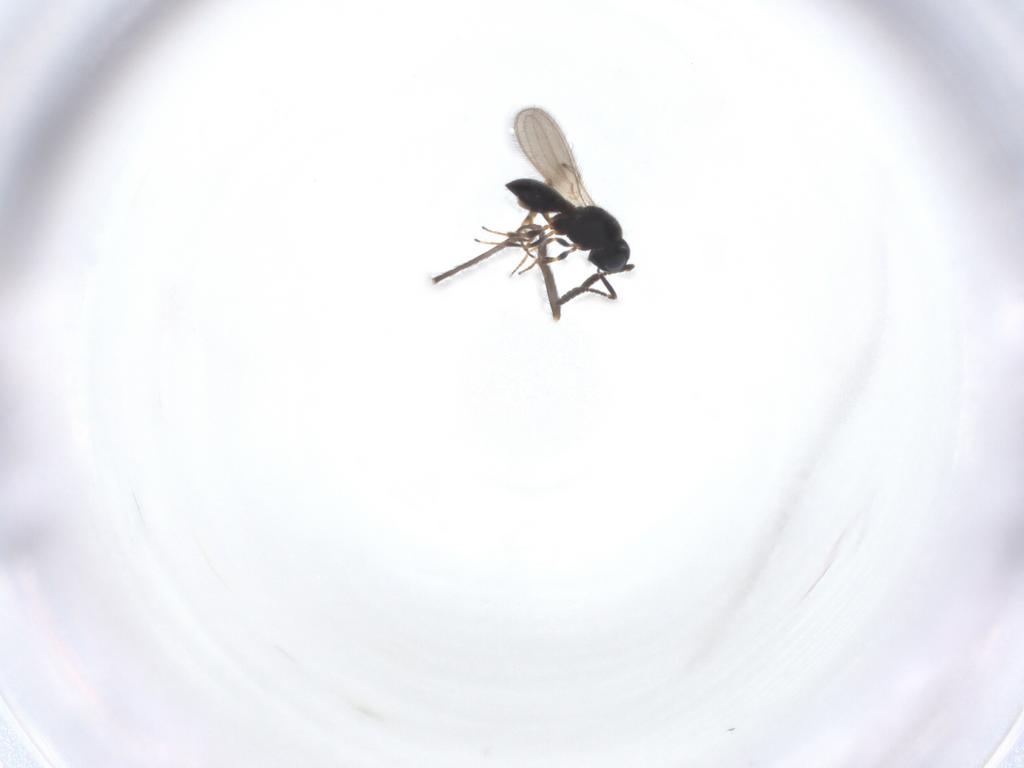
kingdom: Animalia
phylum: Arthropoda
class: Insecta
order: Hymenoptera
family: Scelionidae
